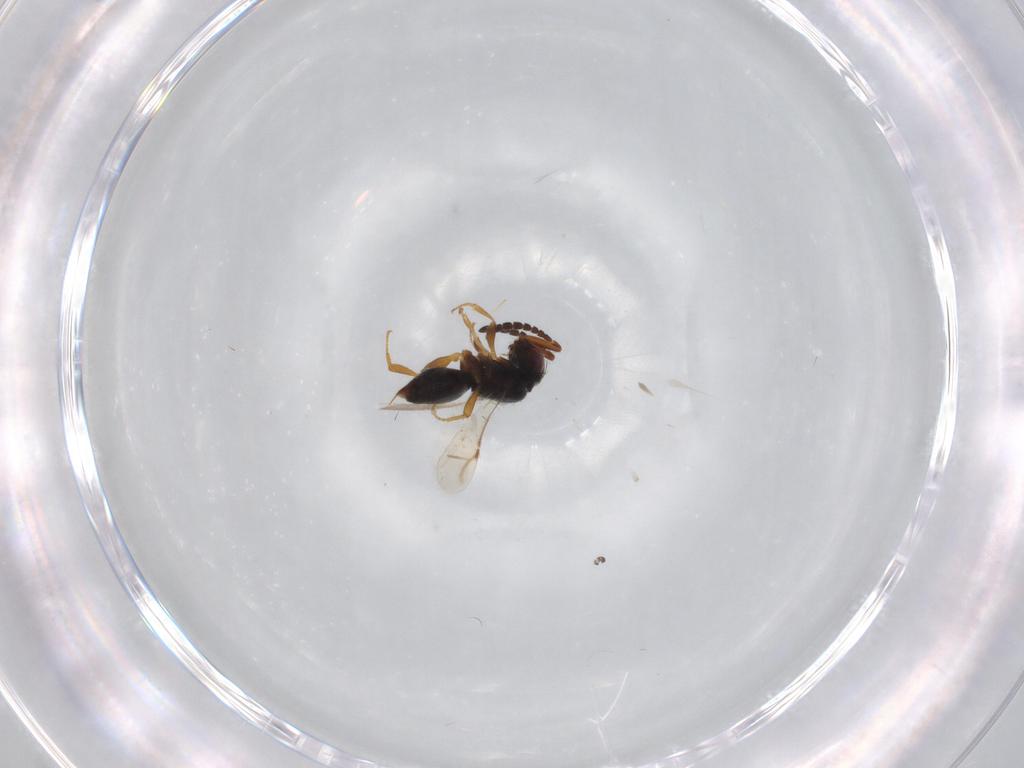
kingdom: Animalia
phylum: Arthropoda
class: Insecta
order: Hymenoptera
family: Scelionidae
